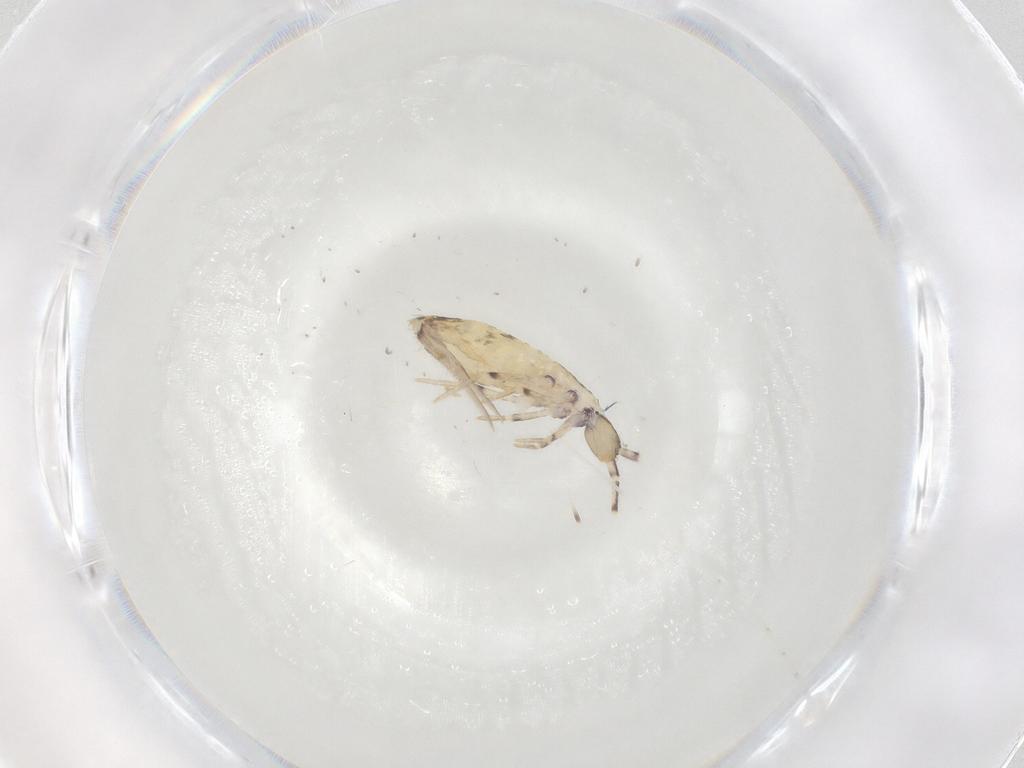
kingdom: Animalia
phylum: Arthropoda
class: Collembola
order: Entomobryomorpha
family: Entomobryidae
